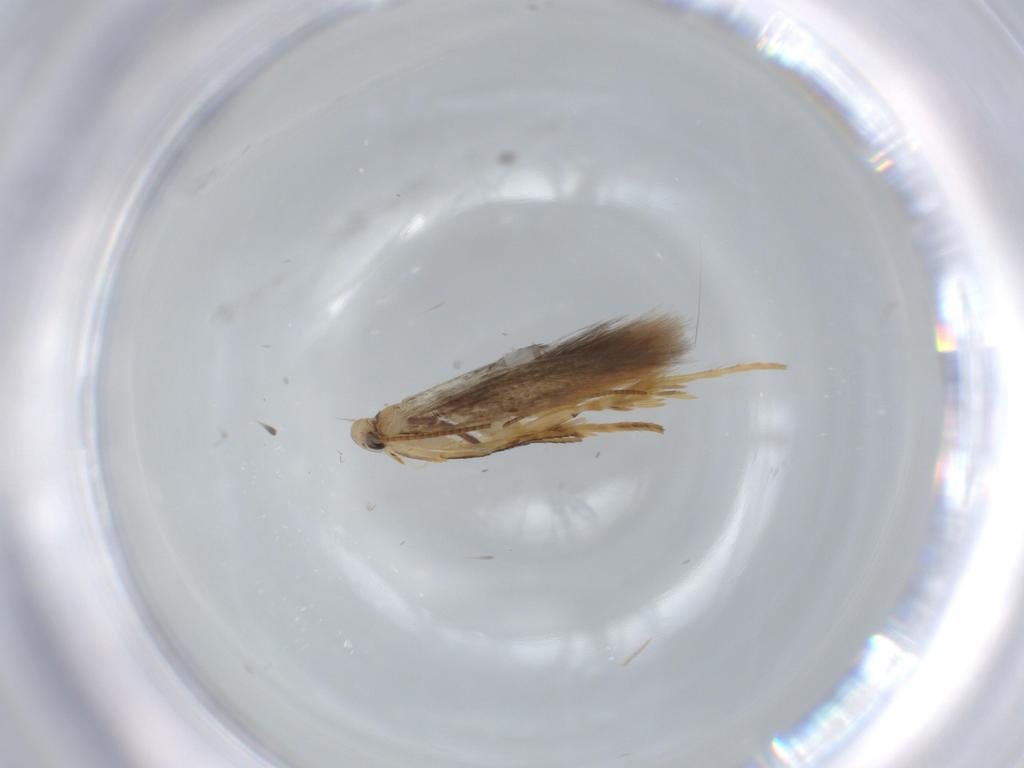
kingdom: Animalia
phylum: Arthropoda
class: Insecta
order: Lepidoptera
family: Gracillariidae
